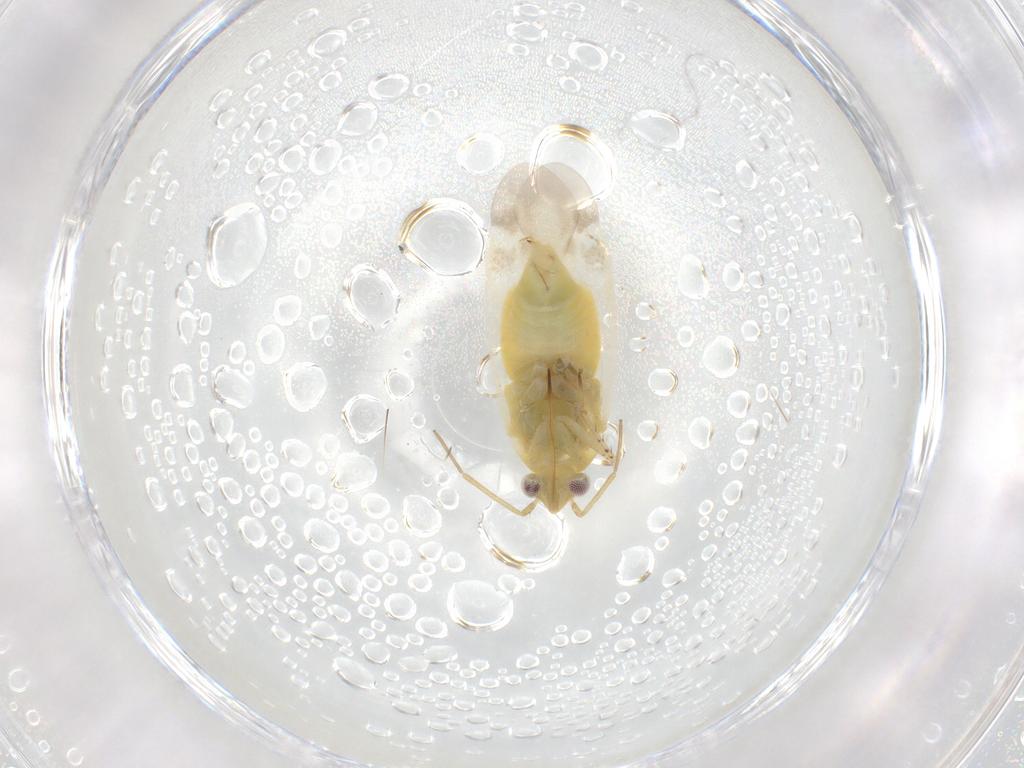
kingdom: Animalia
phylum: Arthropoda
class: Insecta
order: Hemiptera
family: Miridae
